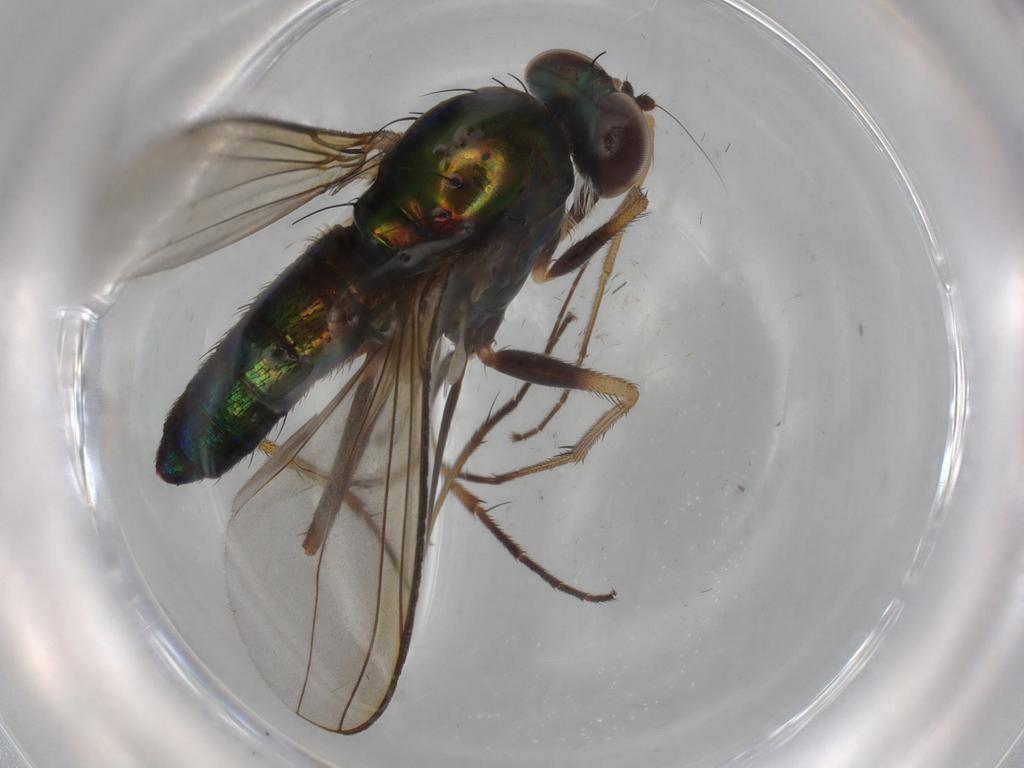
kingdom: Animalia
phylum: Arthropoda
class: Insecta
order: Diptera
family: Dolichopodidae
